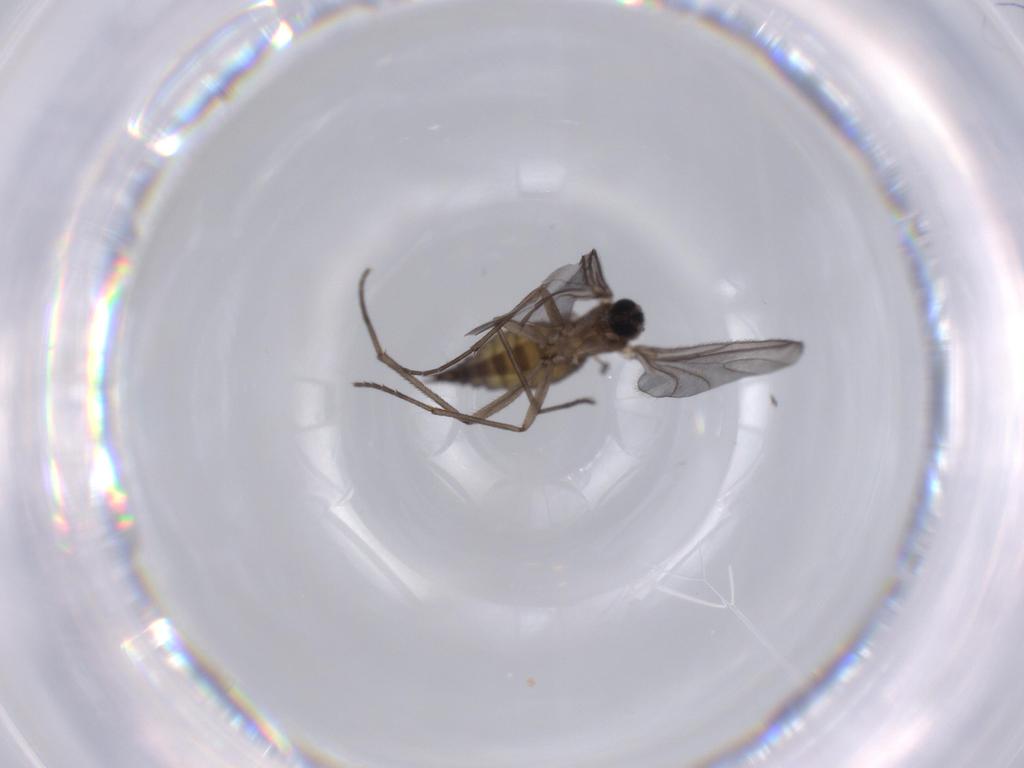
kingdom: Animalia
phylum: Arthropoda
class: Insecta
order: Diptera
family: Sciaridae
